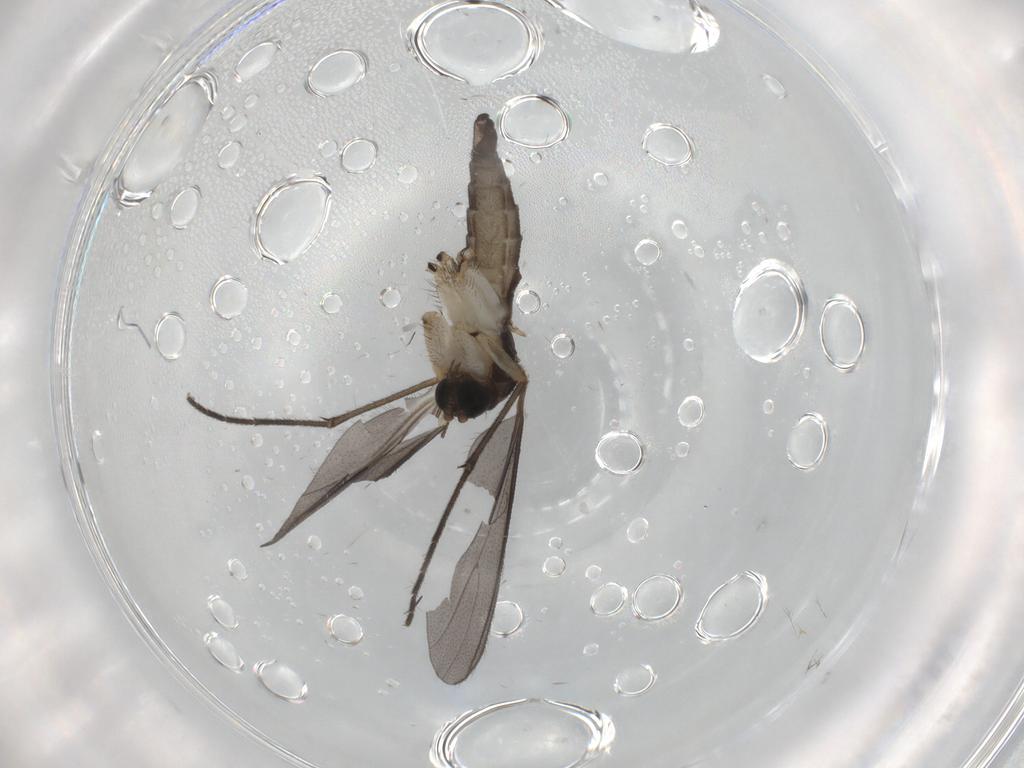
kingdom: Animalia
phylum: Arthropoda
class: Insecta
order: Diptera
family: Sciaridae
